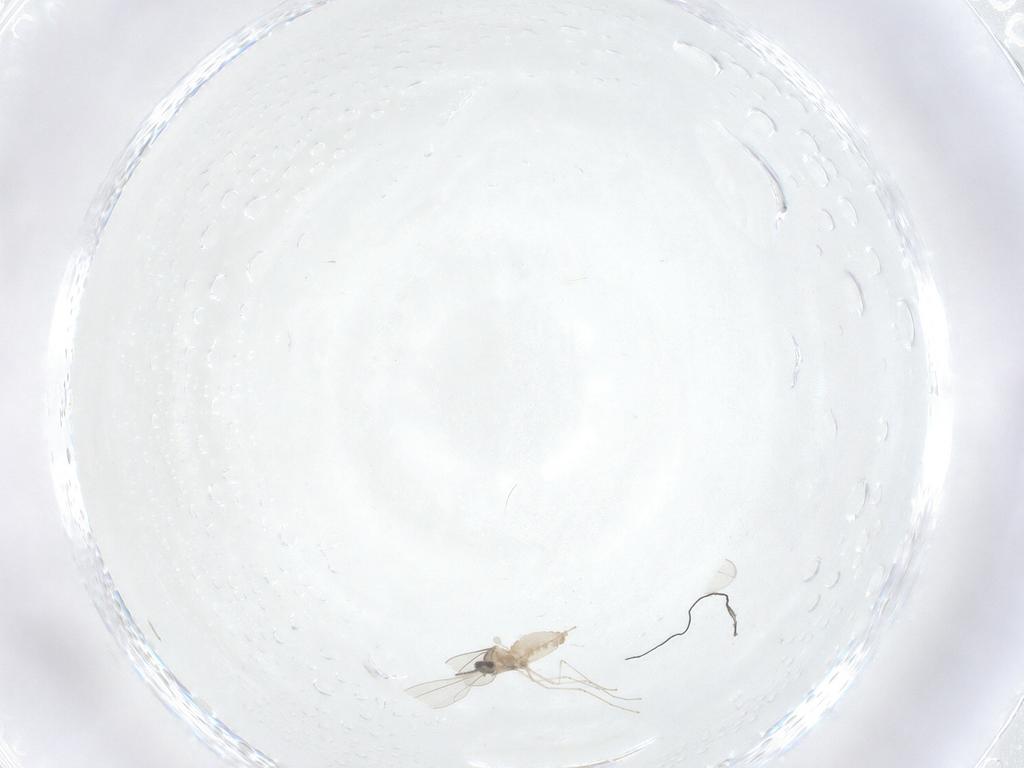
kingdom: Animalia
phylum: Arthropoda
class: Insecta
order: Diptera
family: Cecidomyiidae
